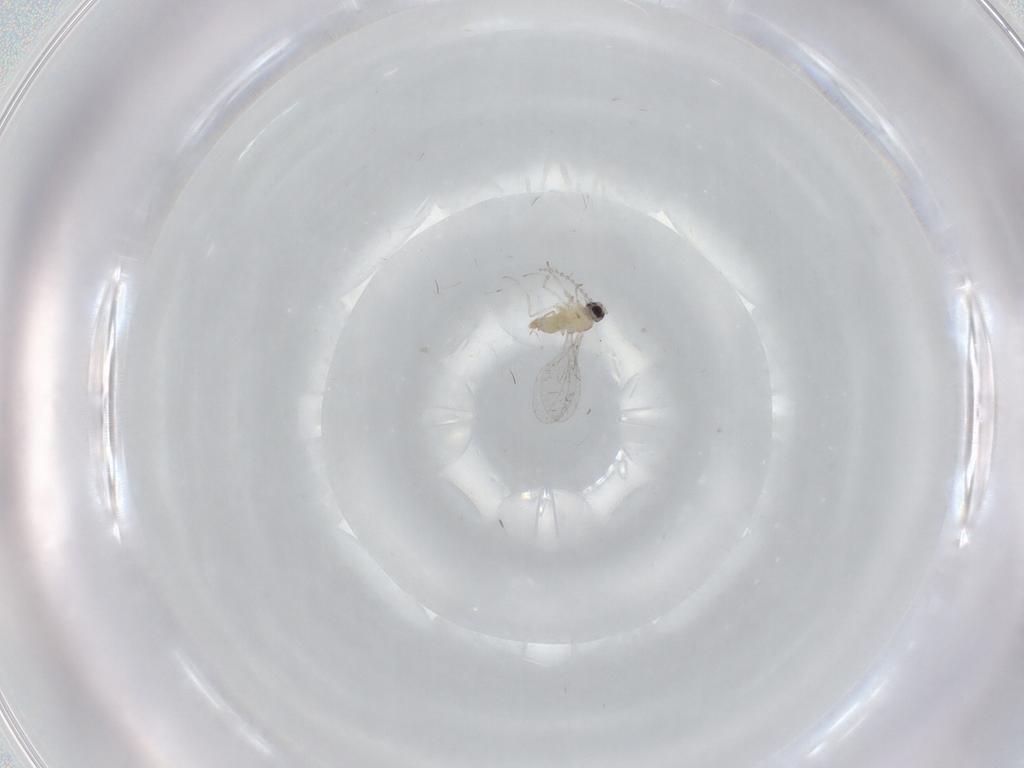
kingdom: Animalia
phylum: Arthropoda
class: Insecta
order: Diptera
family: Cecidomyiidae
